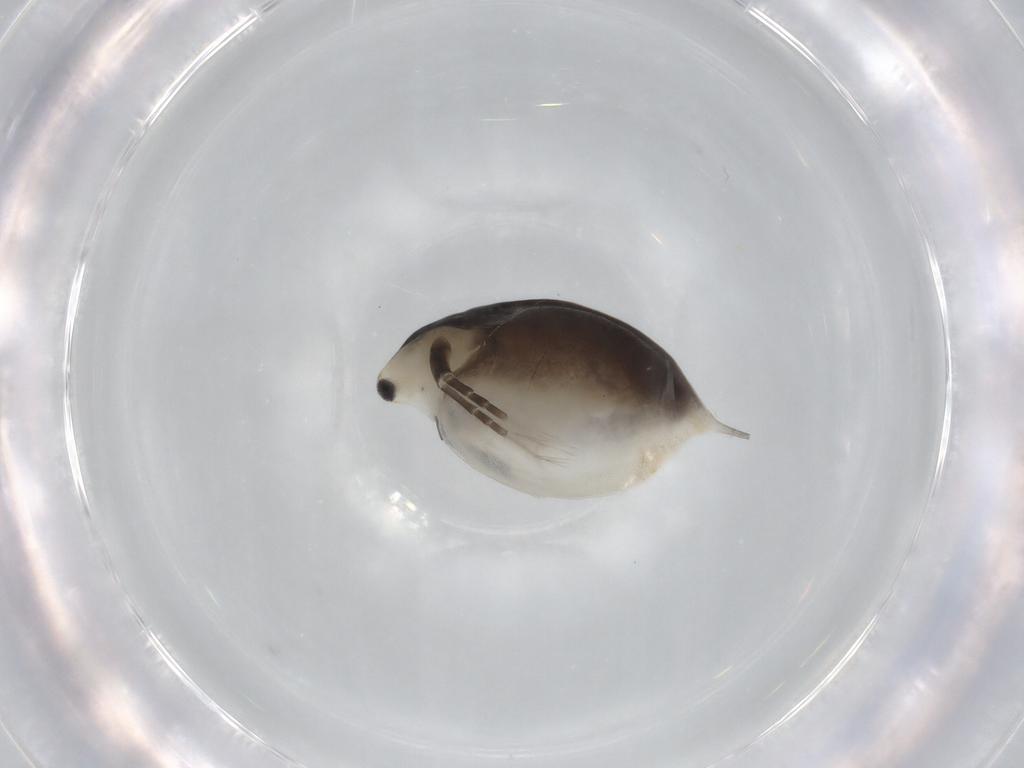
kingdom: Animalia
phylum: Arthropoda
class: Branchiopoda
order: Diplostraca
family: Daphniidae
